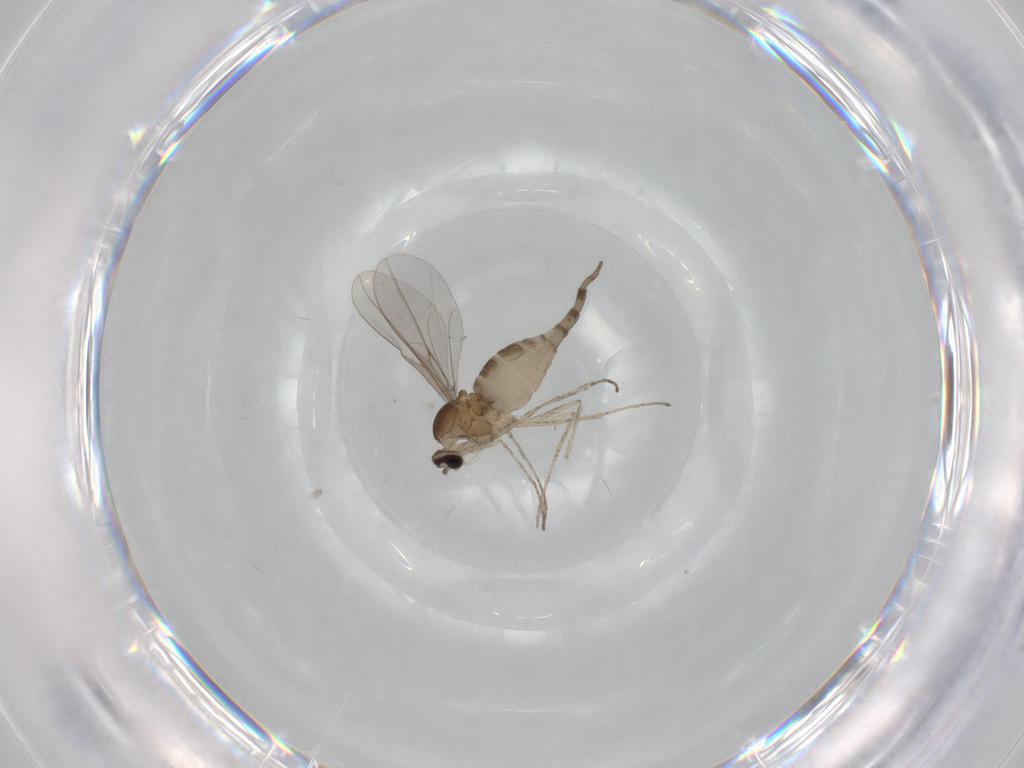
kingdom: Animalia
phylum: Arthropoda
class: Insecta
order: Diptera
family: Cecidomyiidae
